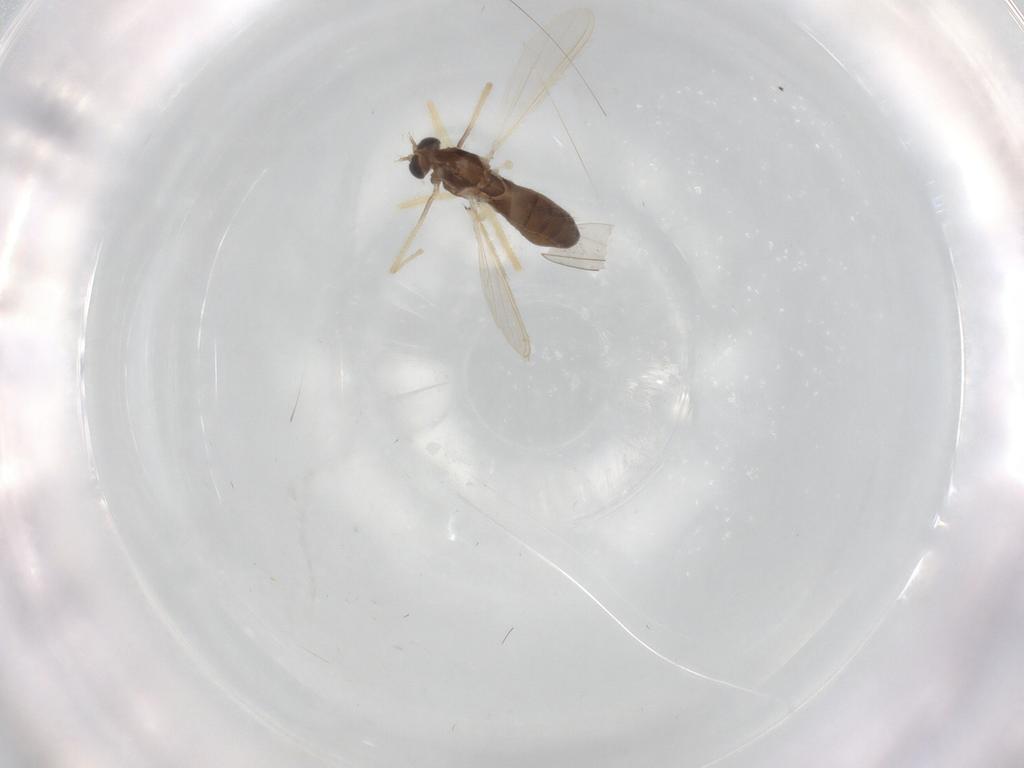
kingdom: Animalia
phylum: Arthropoda
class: Insecta
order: Diptera
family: Chironomidae
